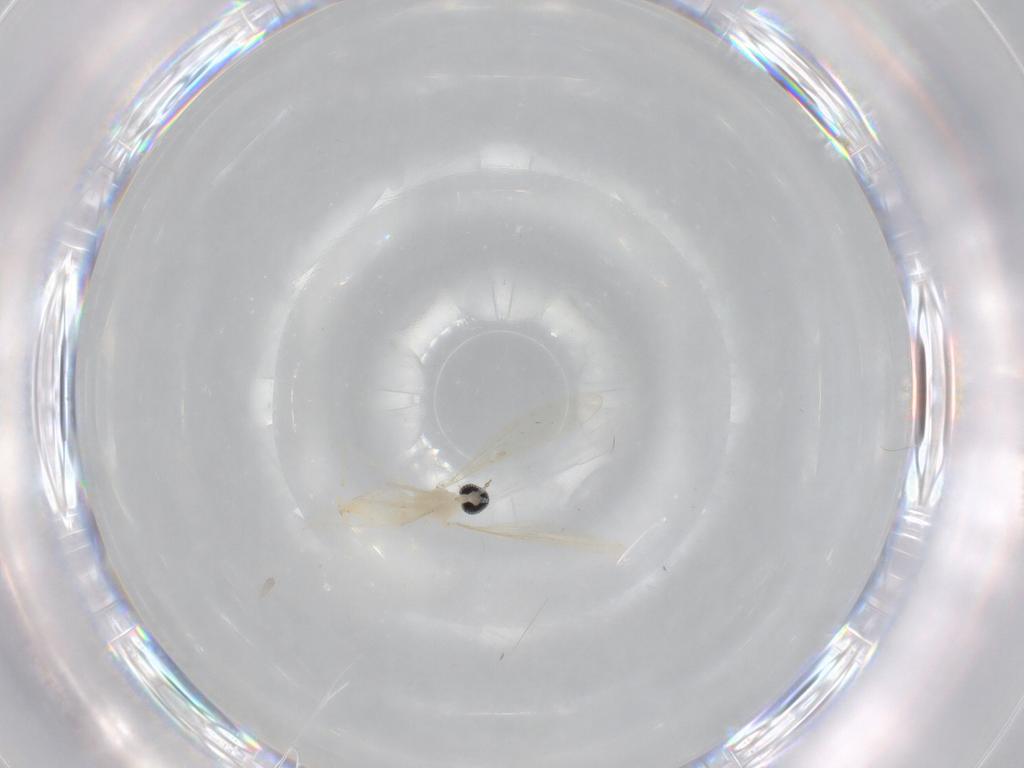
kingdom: Animalia
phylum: Arthropoda
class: Insecta
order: Diptera
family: Cecidomyiidae
